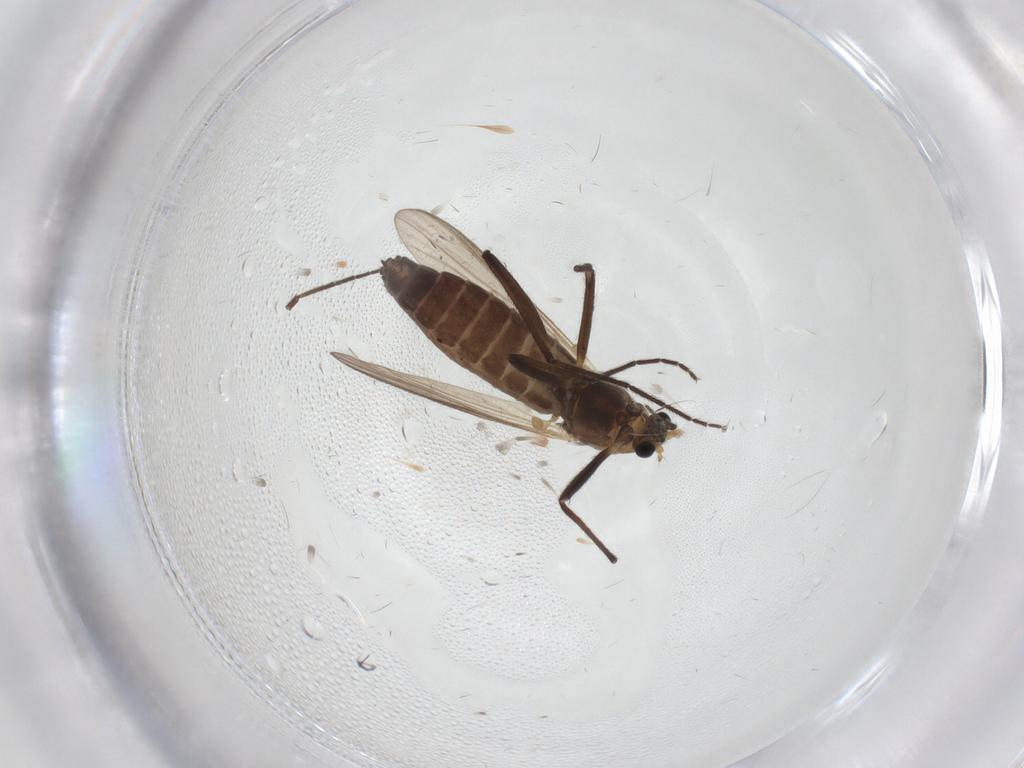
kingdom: Animalia
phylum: Arthropoda
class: Insecta
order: Diptera
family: Chironomidae
